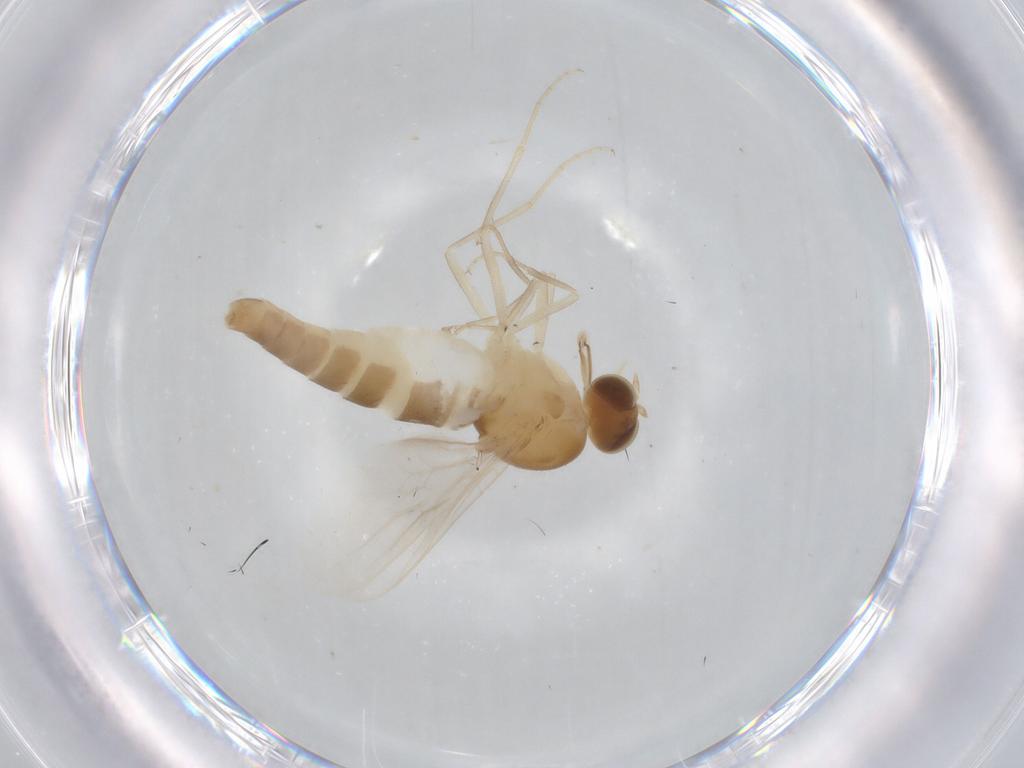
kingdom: Animalia
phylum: Arthropoda
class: Insecta
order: Diptera
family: Scenopinidae
